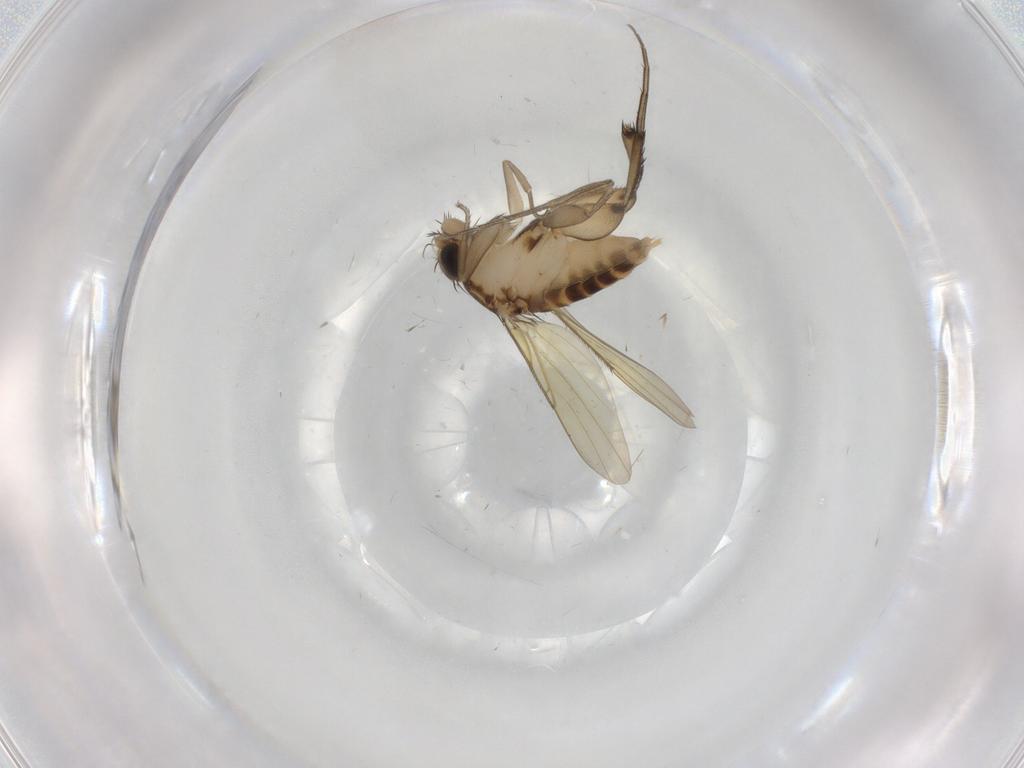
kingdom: Animalia
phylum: Arthropoda
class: Insecta
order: Diptera
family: Phoridae
